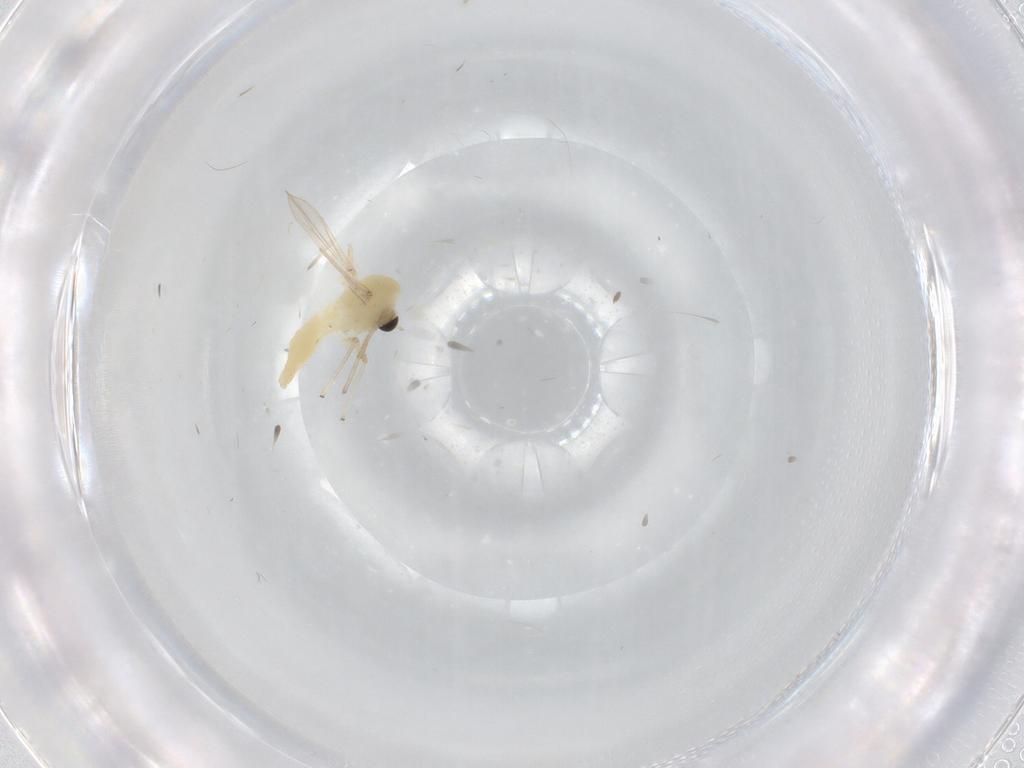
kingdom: Animalia
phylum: Arthropoda
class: Insecta
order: Diptera
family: Chironomidae
